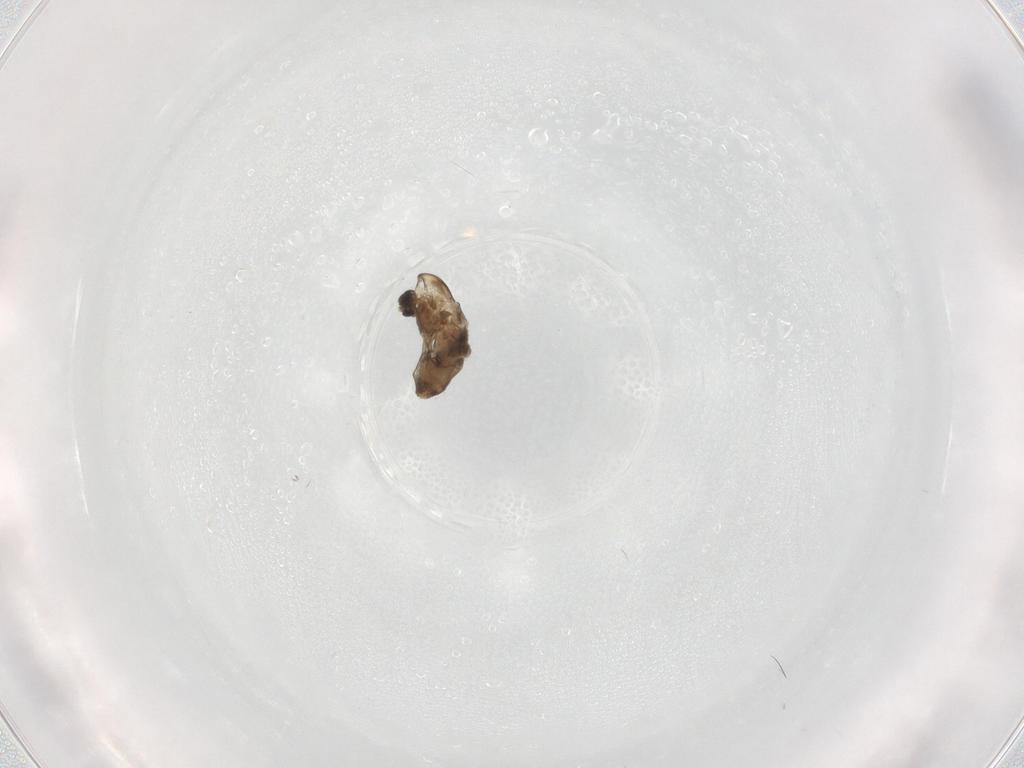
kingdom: Animalia
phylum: Arthropoda
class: Insecta
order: Diptera
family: Chironomidae
